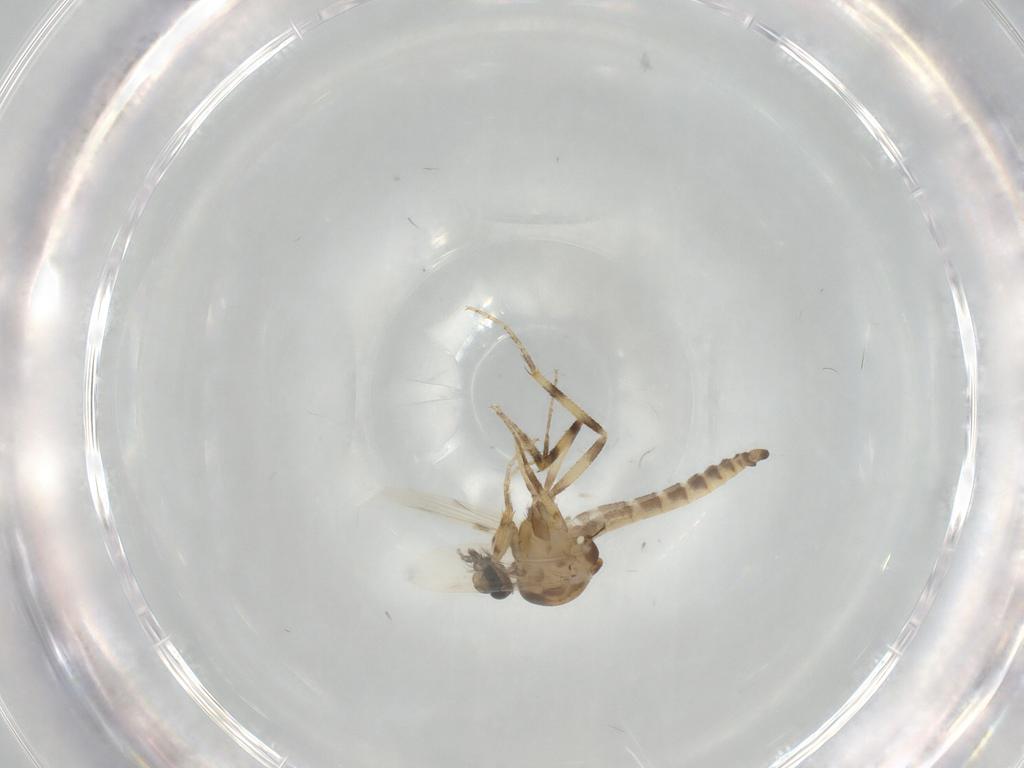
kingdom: Animalia
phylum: Arthropoda
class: Insecta
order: Diptera
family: Ceratopogonidae
